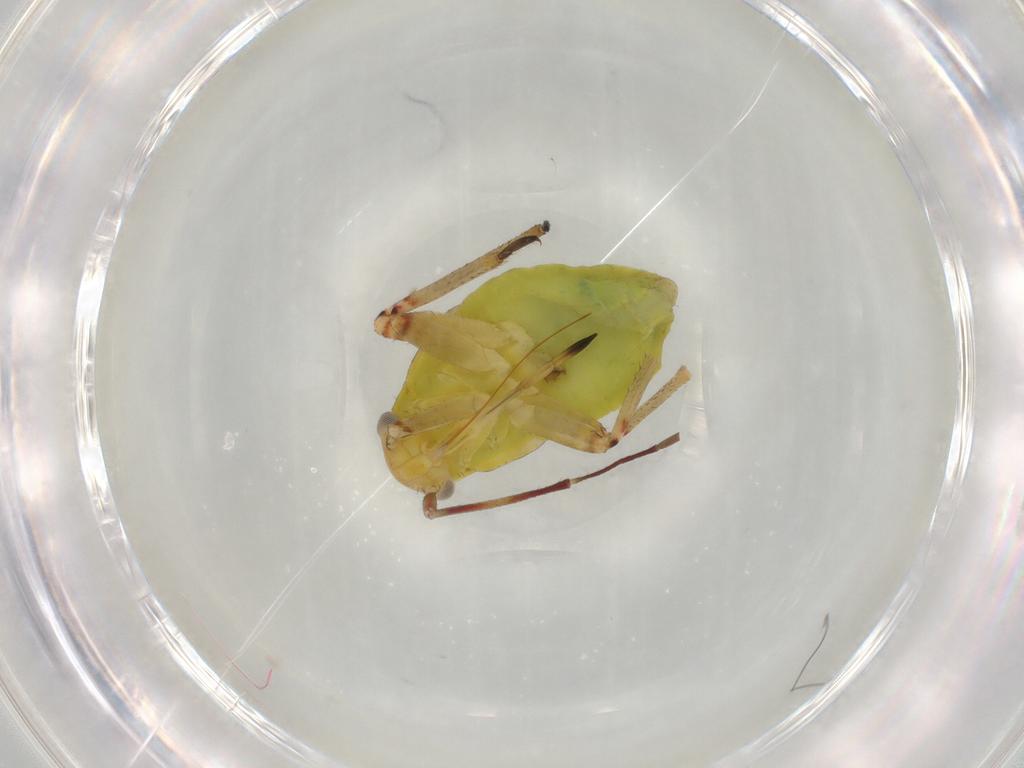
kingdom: Animalia
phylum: Arthropoda
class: Insecta
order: Hemiptera
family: Miridae
